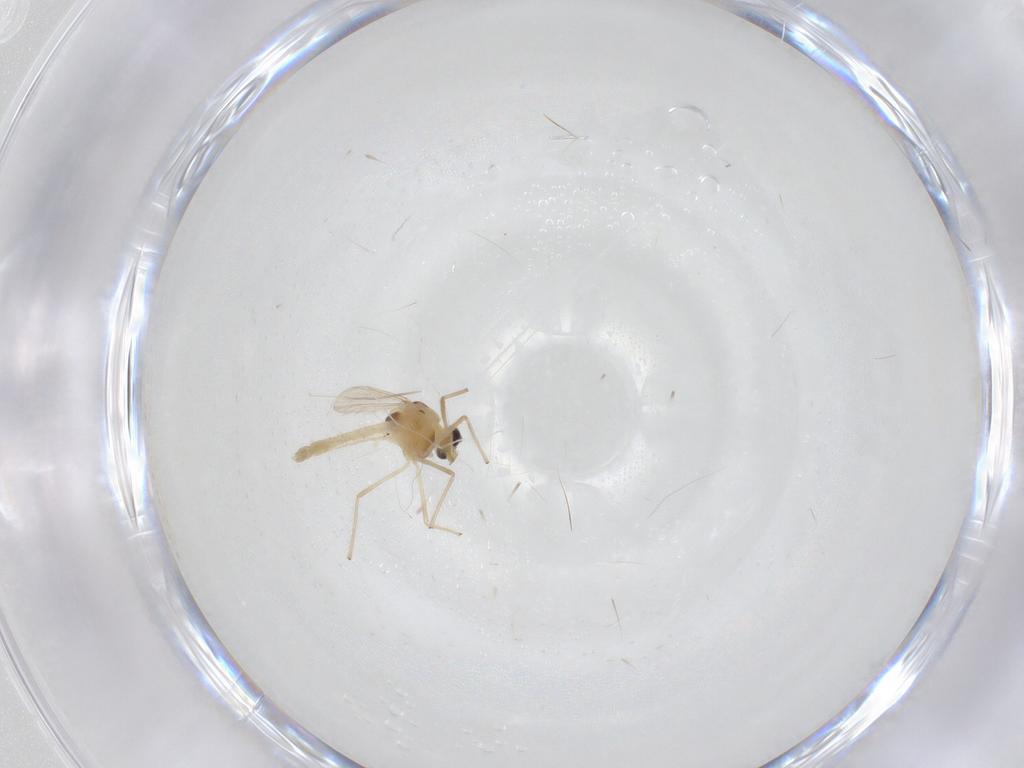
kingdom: Animalia
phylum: Arthropoda
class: Insecta
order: Diptera
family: Chironomidae
